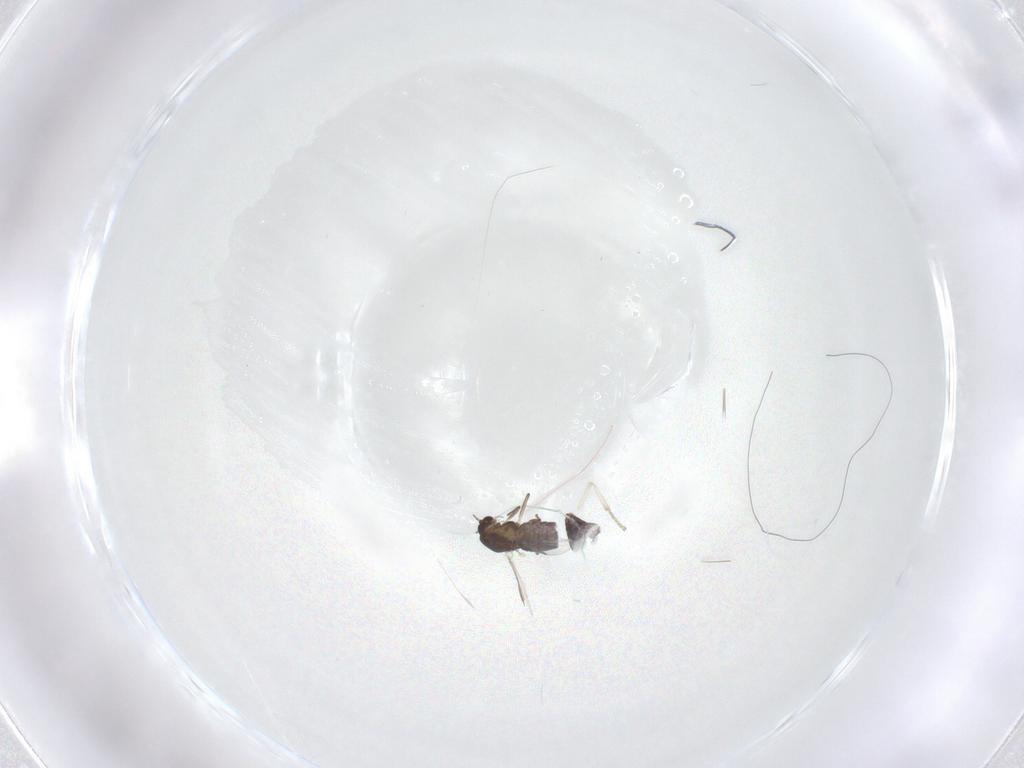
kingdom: Animalia
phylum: Arthropoda
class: Insecta
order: Diptera
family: Chironomidae
